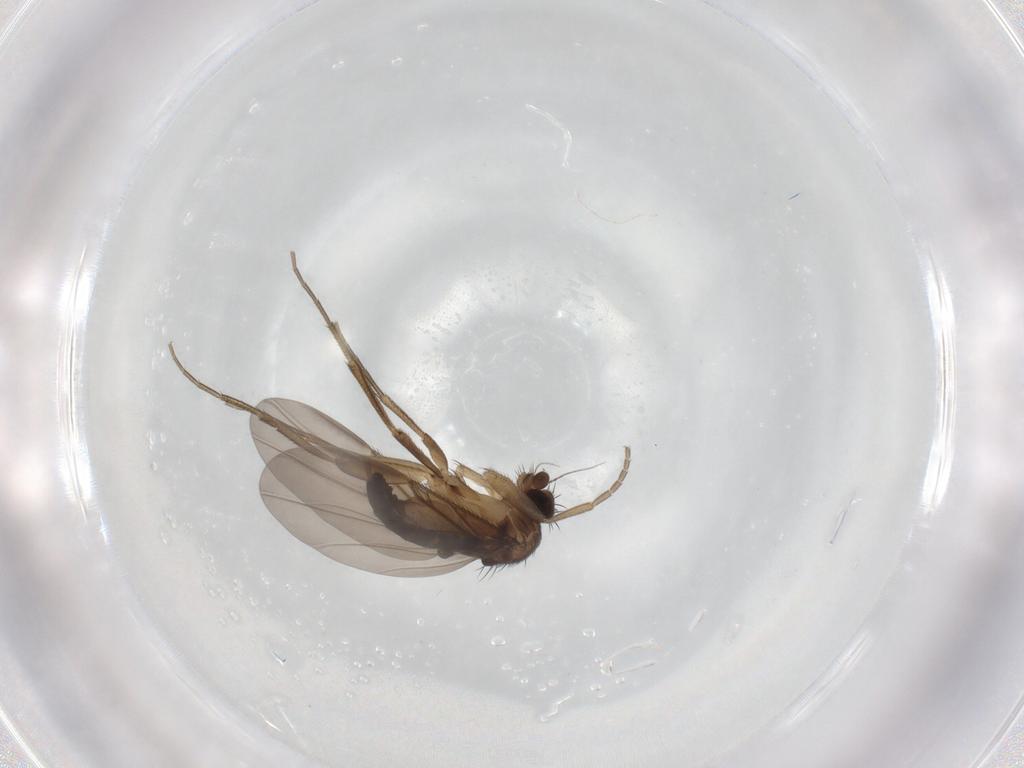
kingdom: Animalia
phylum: Arthropoda
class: Insecta
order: Diptera
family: Phoridae
